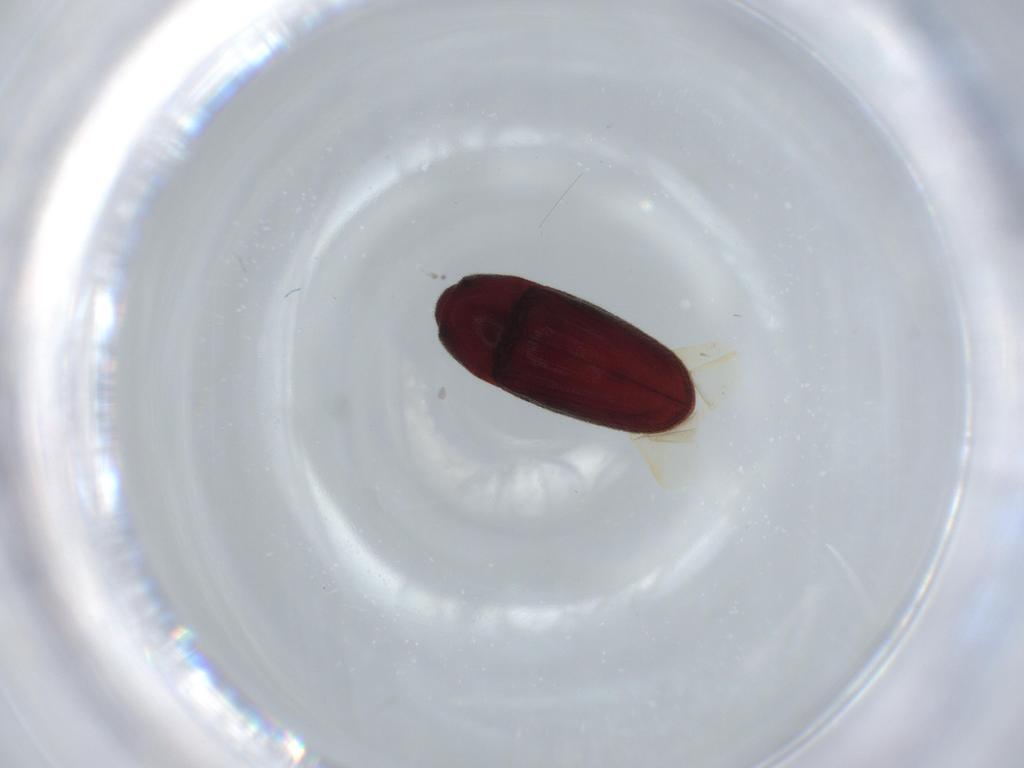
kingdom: Animalia
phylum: Arthropoda
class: Insecta
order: Coleoptera
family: Throscidae
